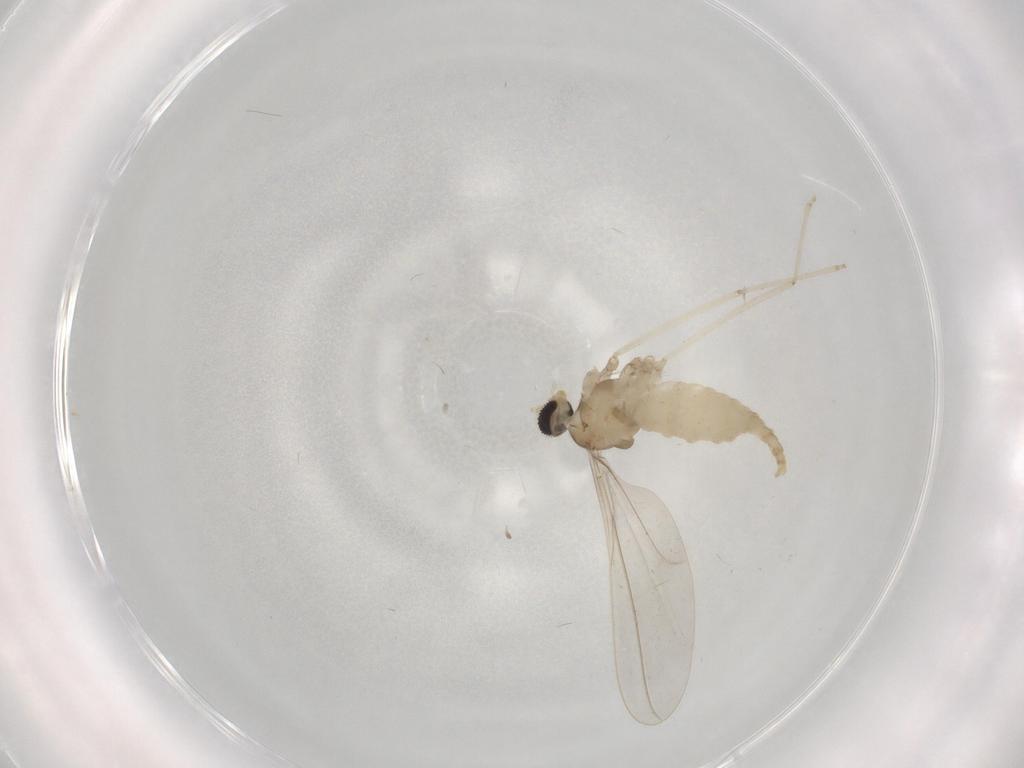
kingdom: Animalia
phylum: Arthropoda
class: Insecta
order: Diptera
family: Cecidomyiidae
